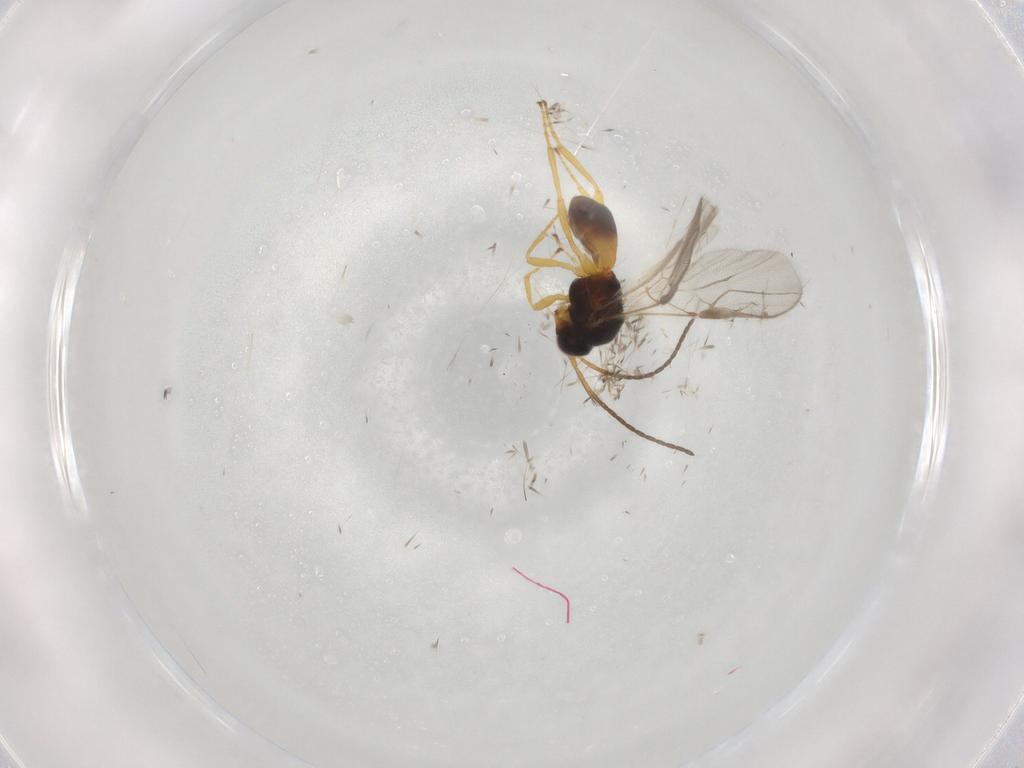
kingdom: Animalia
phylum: Arthropoda
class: Insecta
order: Hymenoptera
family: Braconidae
